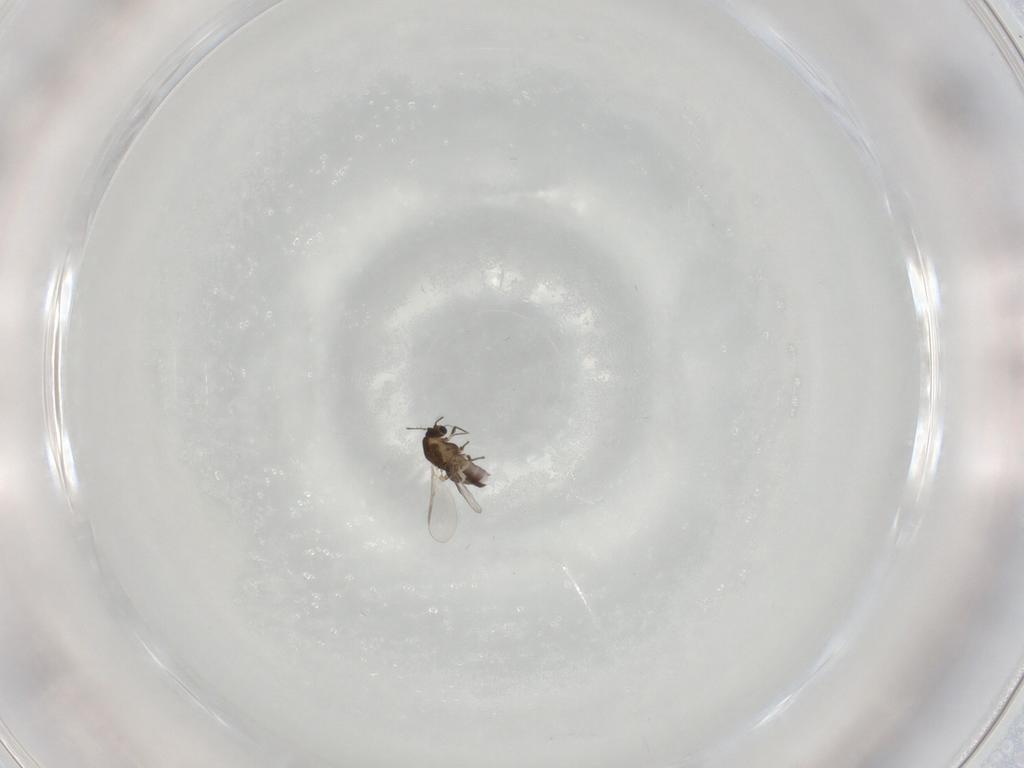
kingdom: Animalia
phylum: Arthropoda
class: Insecta
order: Diptera
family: Chironomidae
